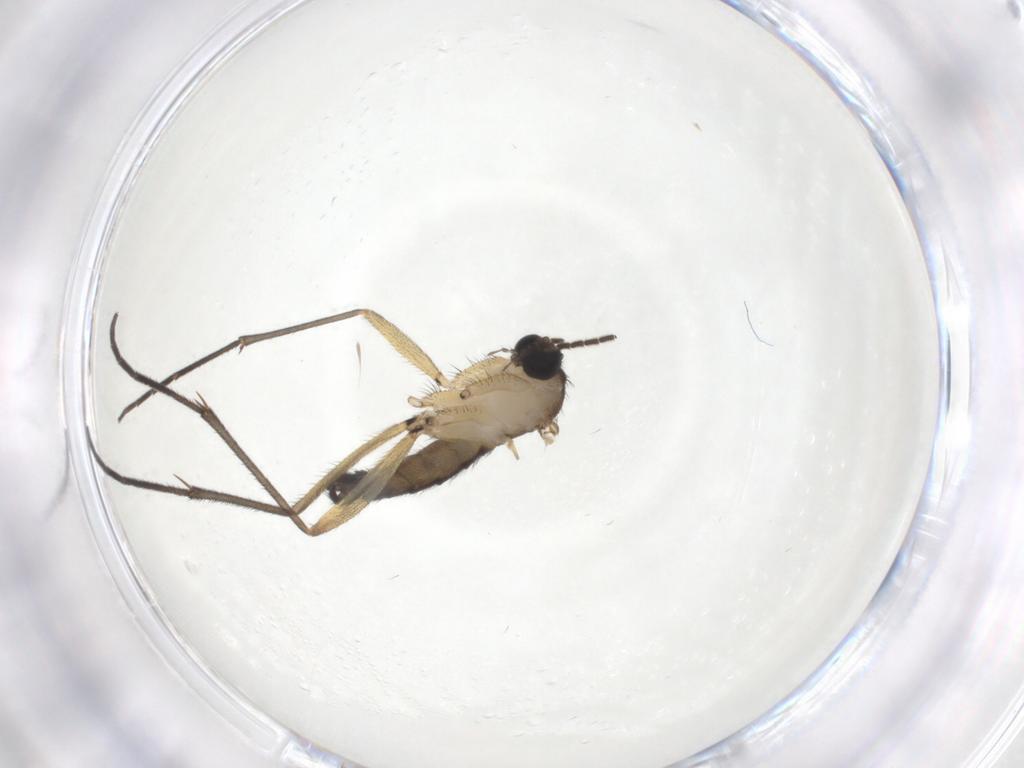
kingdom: Animalia
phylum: Arthropoda
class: Insecta
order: Diptera
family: Sciaridae
